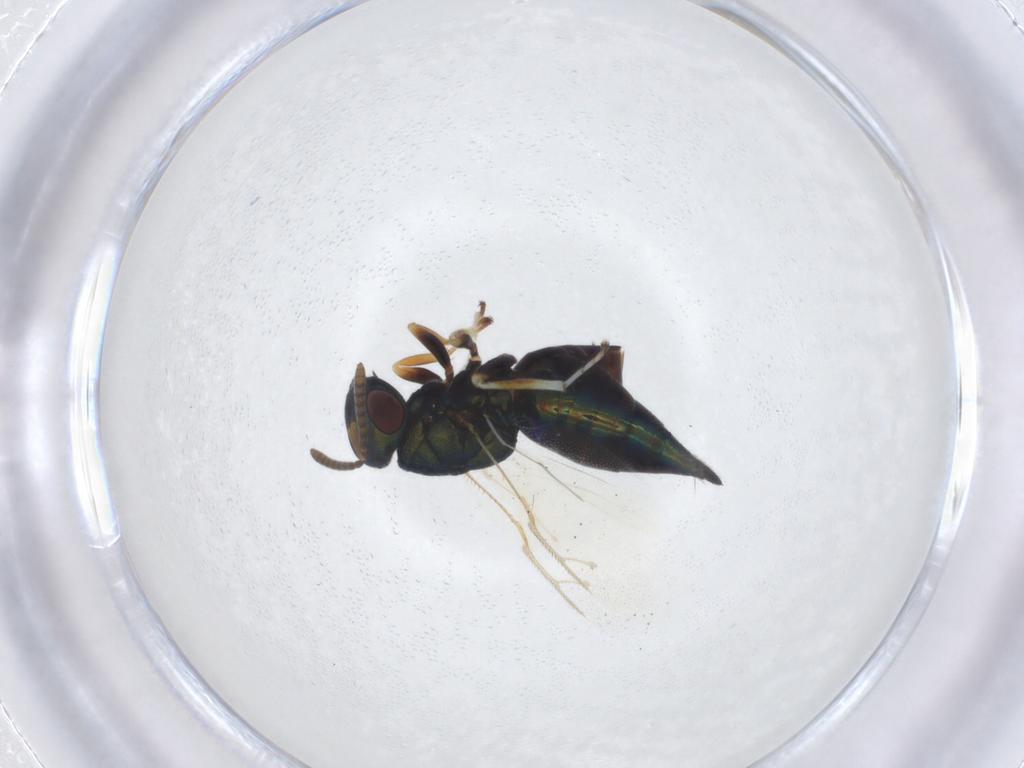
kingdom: Animalia
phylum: Arthropoda
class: Insecta
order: Hymenoptera
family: Pteromalidae
